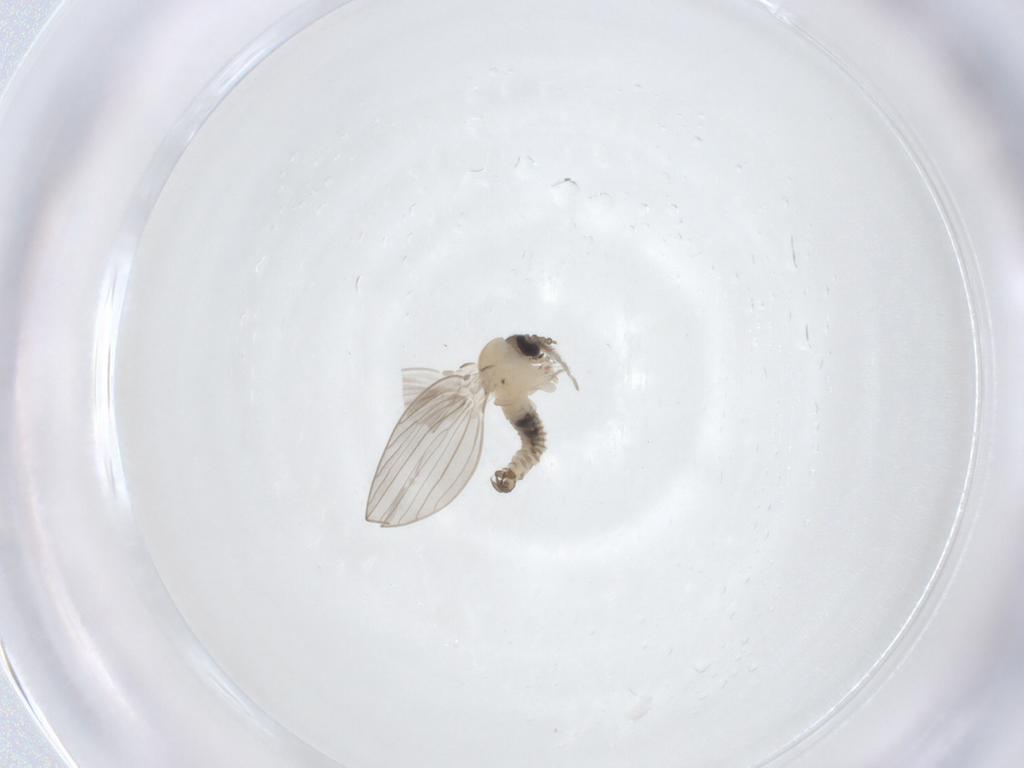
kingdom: Animalia
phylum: Arthropoda
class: Insecta
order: Diptera
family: Psychodidae
